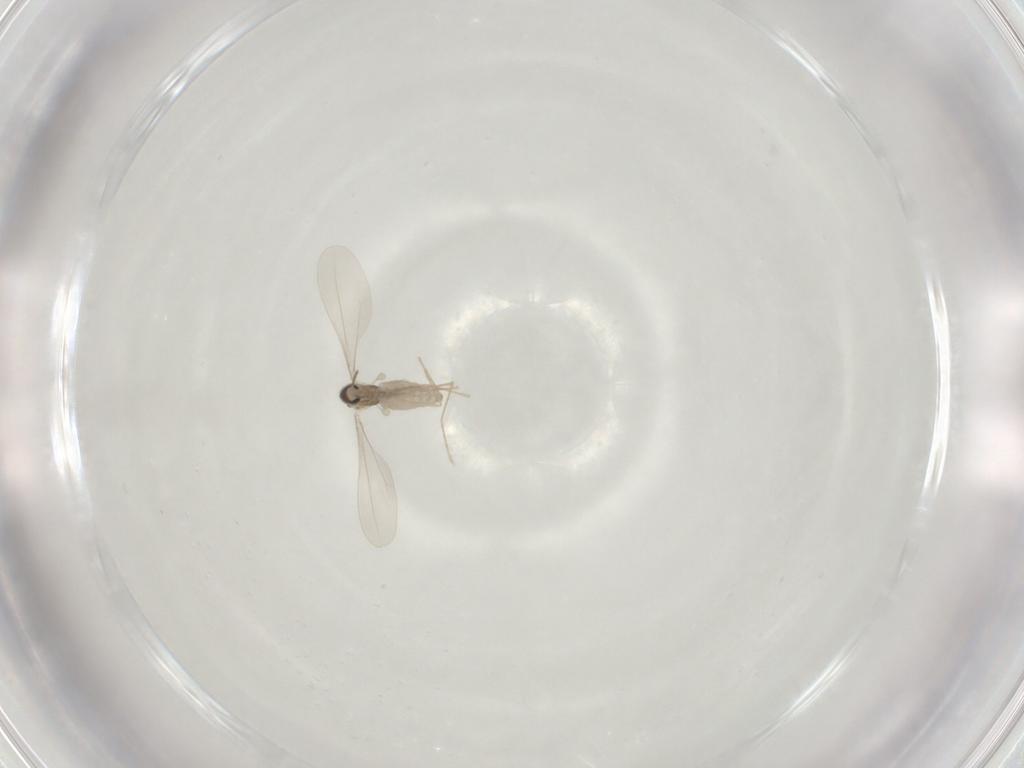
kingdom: Animalia
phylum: Arthropoda
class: Insecta
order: Diptera
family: Cecidomyiidae
